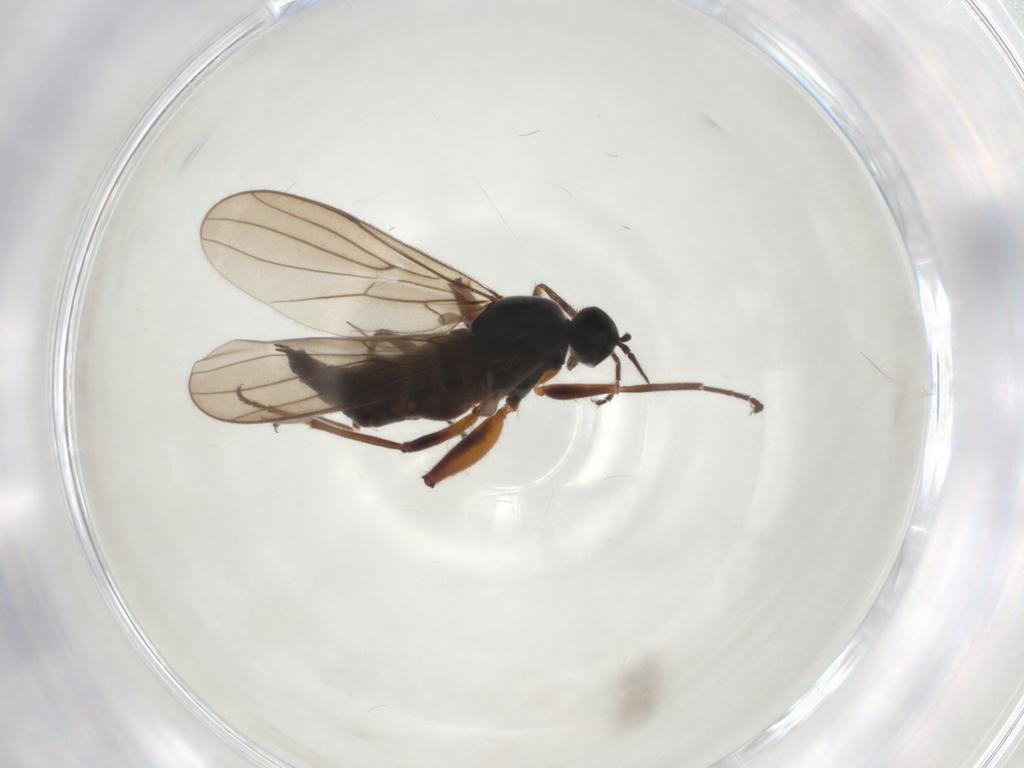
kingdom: Animalia
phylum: Arthropoda
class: Insecta
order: Diptera
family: Hybotidae
